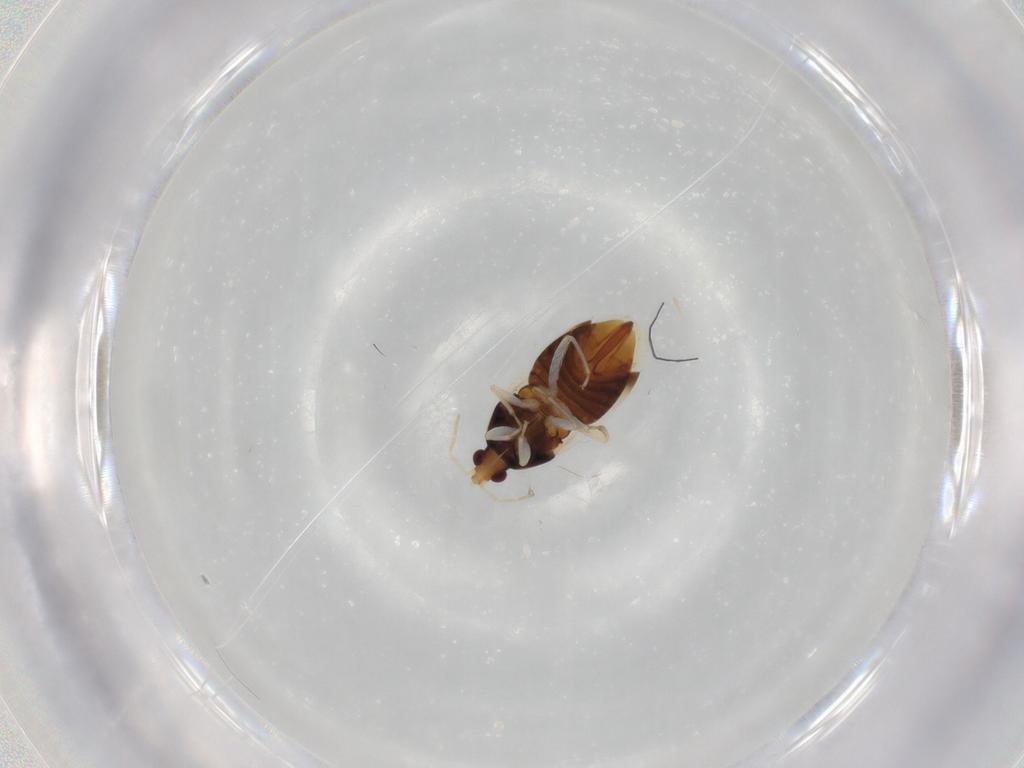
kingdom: Animalia
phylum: Arthropoda
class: Insecta
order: Hemiptera
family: Anthocoridae
